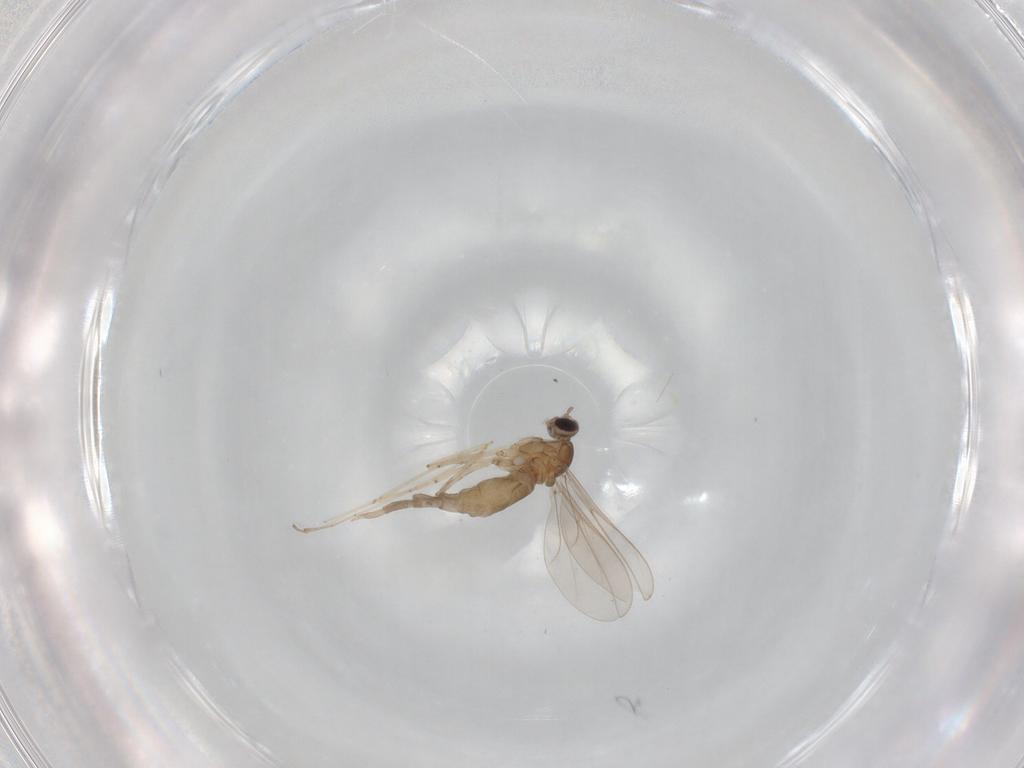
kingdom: Animalia
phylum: Arthropoda
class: Insecta
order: Diptera
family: Cecidomyiidae
